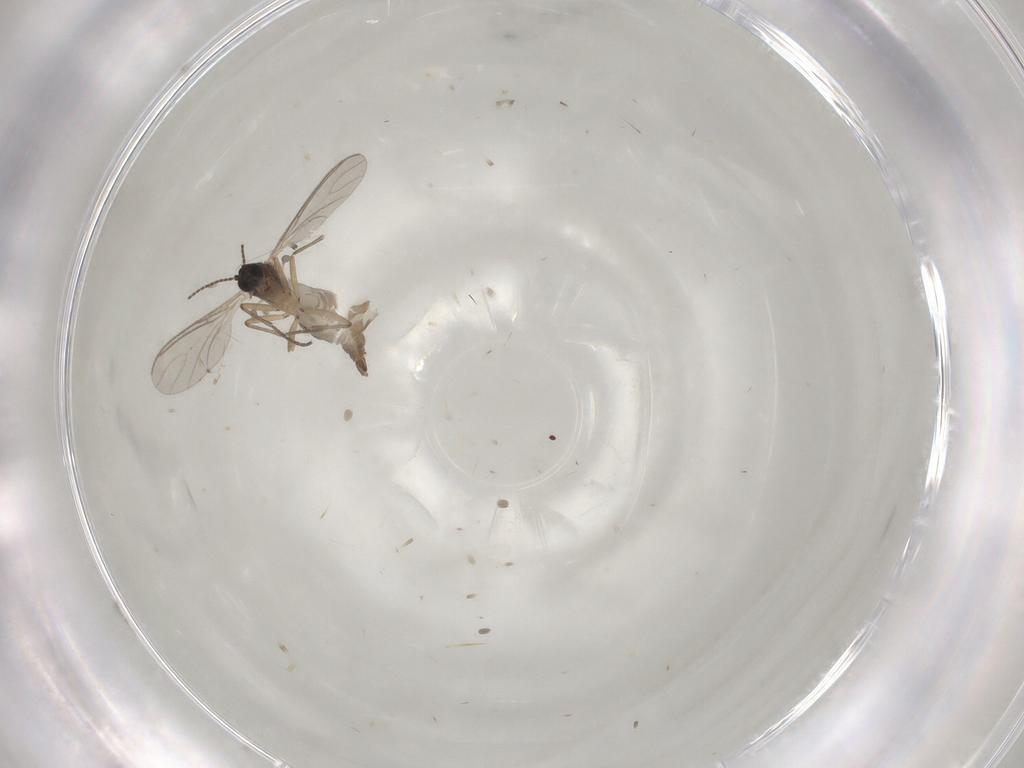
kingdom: Animalia
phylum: Arthropoda
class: Insecta
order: Diptera
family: Sciaridae
